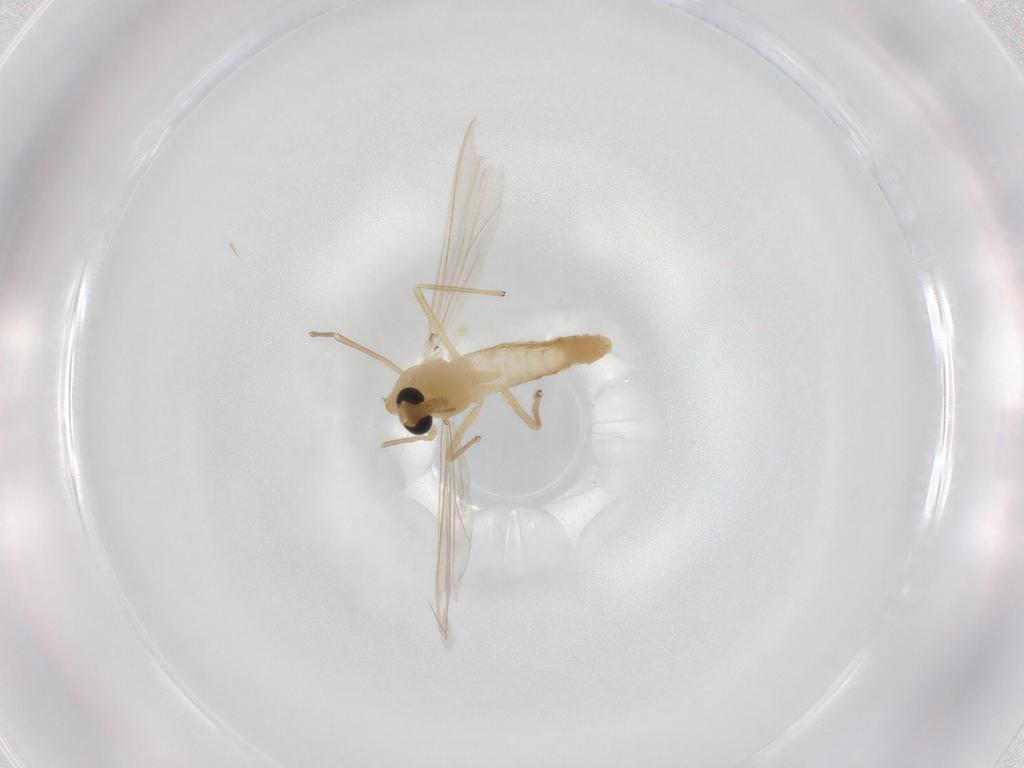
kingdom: Animalia
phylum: Arthropoda
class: Insecta
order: Diptera
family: Chironomidae
